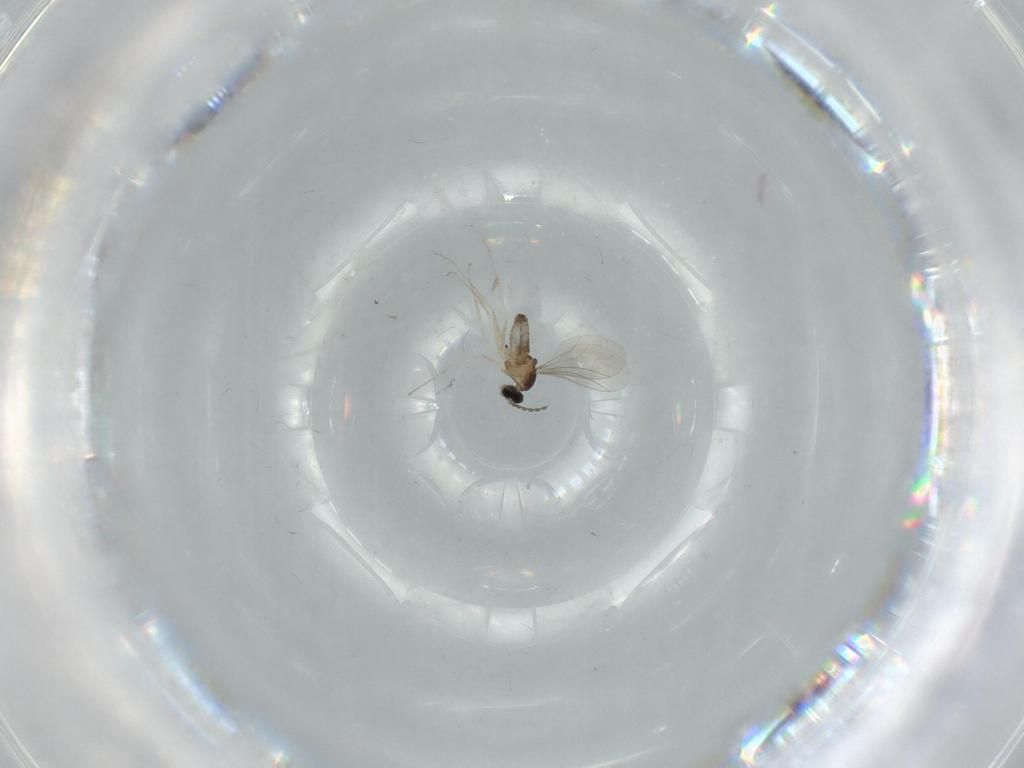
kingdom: Animalia
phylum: Arthropoda
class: Insecta
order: Diptera
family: Cecidomyiidae
